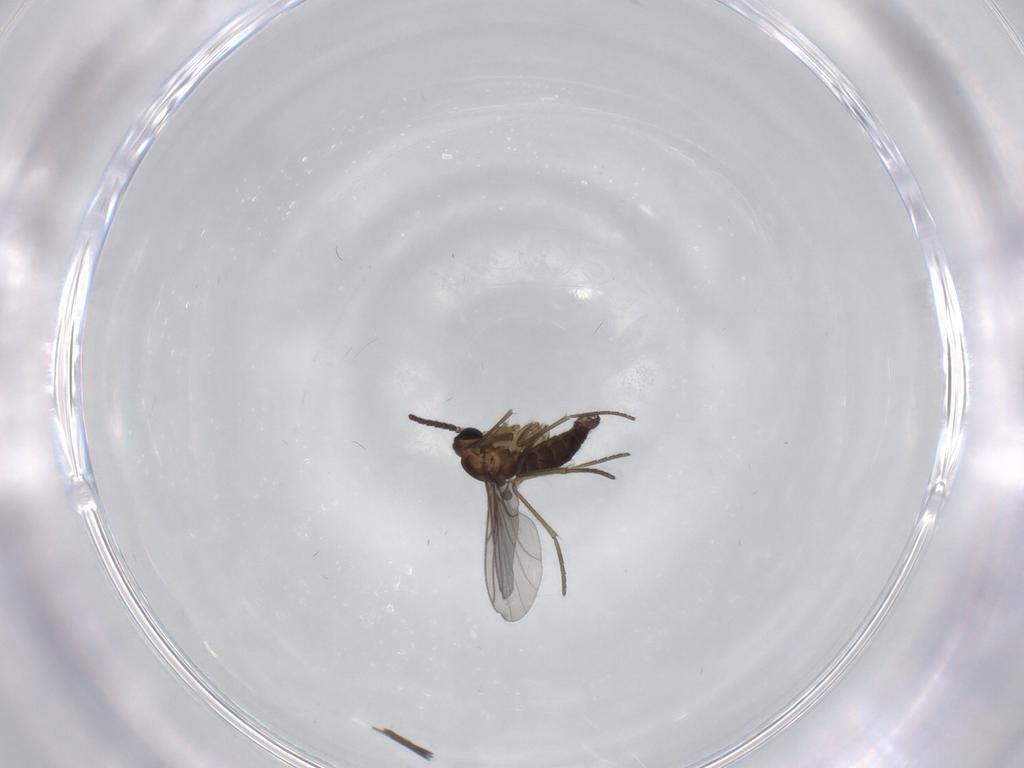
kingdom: Animalia
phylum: Arthropoda
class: Insecta
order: Diptera
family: Sciaridae
